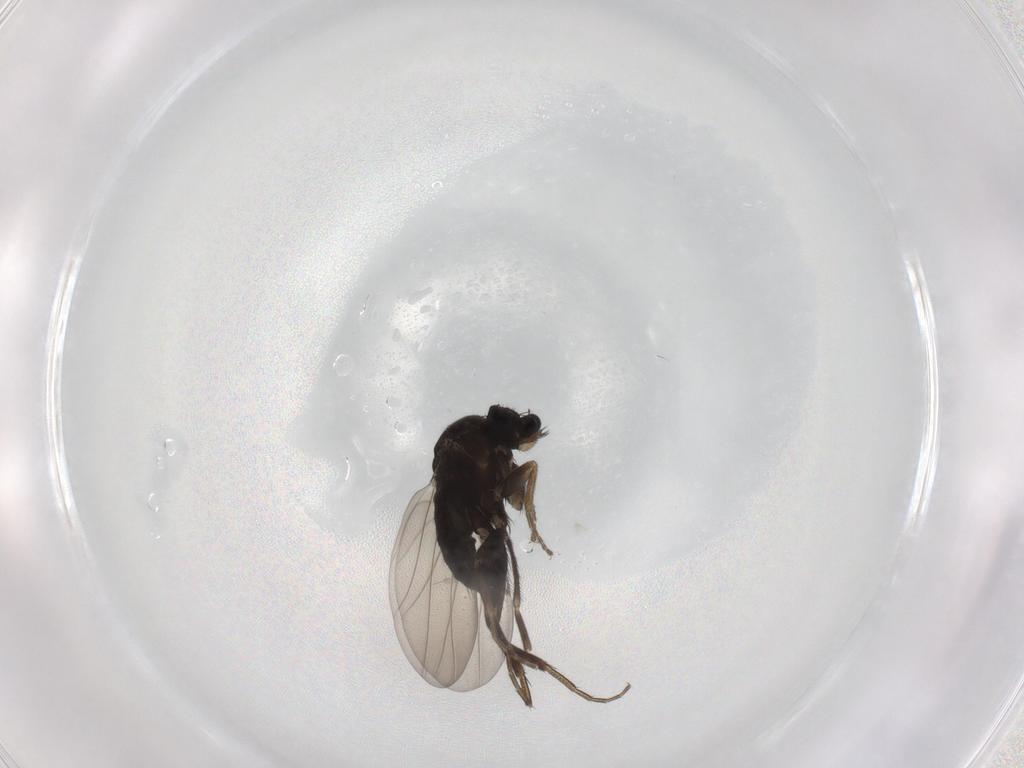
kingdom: Animalia
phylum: Arthropoda
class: Insecta
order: Diptera
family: Phoridae
